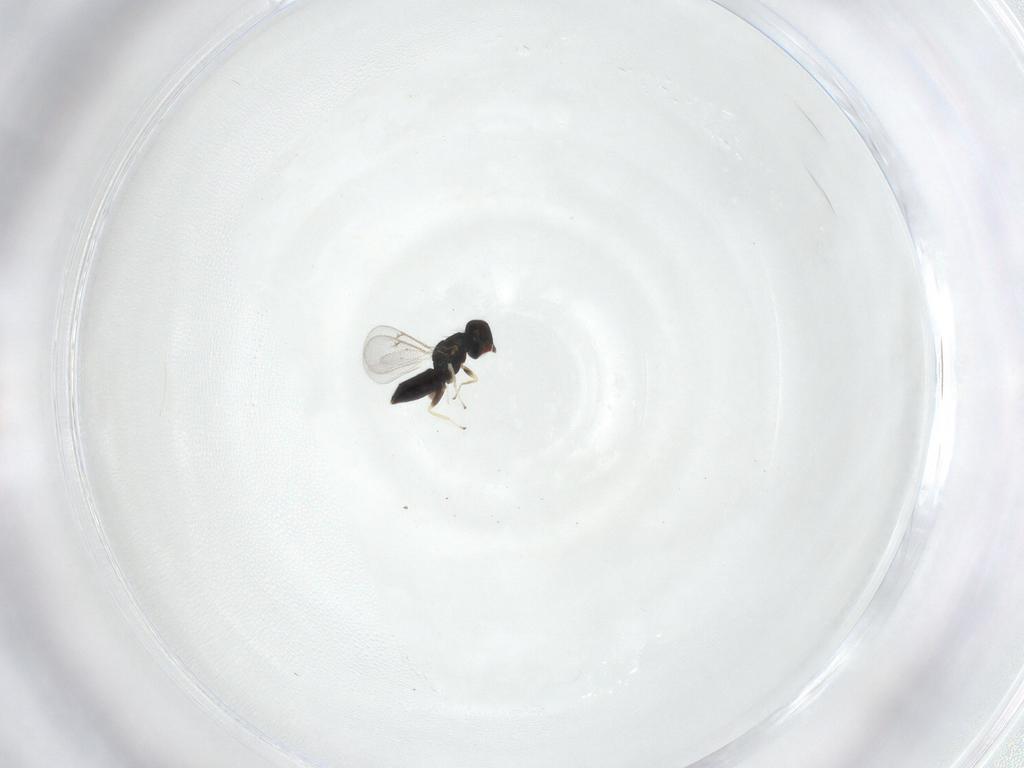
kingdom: Animalia
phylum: Arthropoda
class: Insecta
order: Hymenoptera
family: Eulophidae
